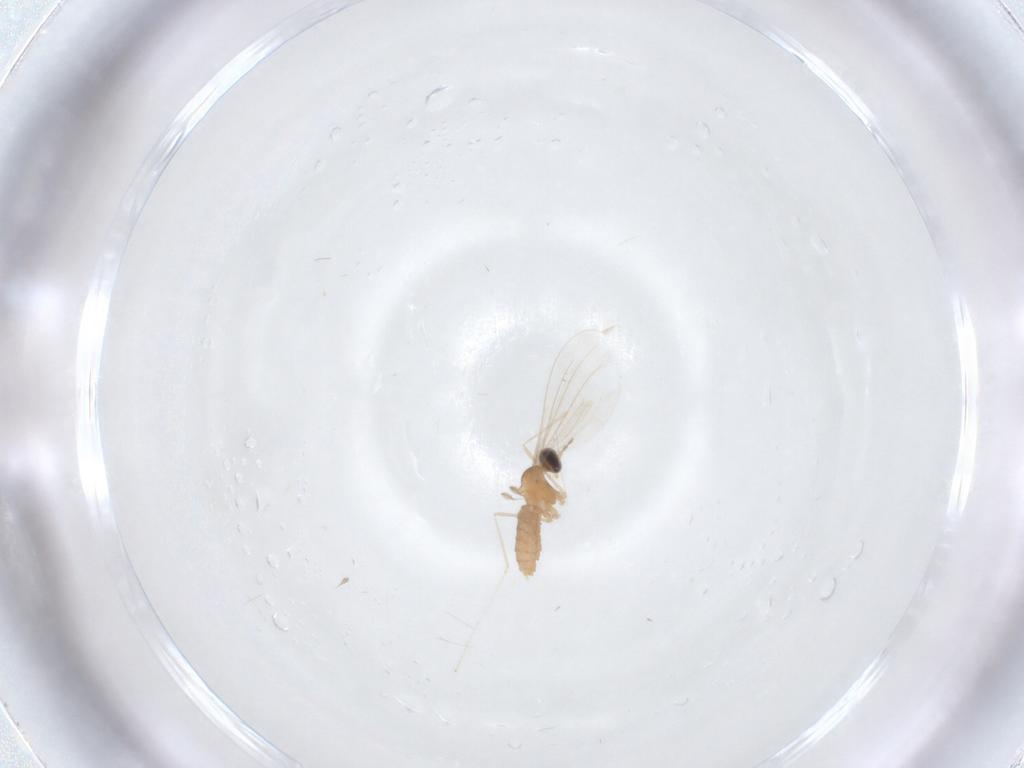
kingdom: Animalia
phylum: Arthropoda
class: Insecta
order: Diptera
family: Cecidomyiidae
